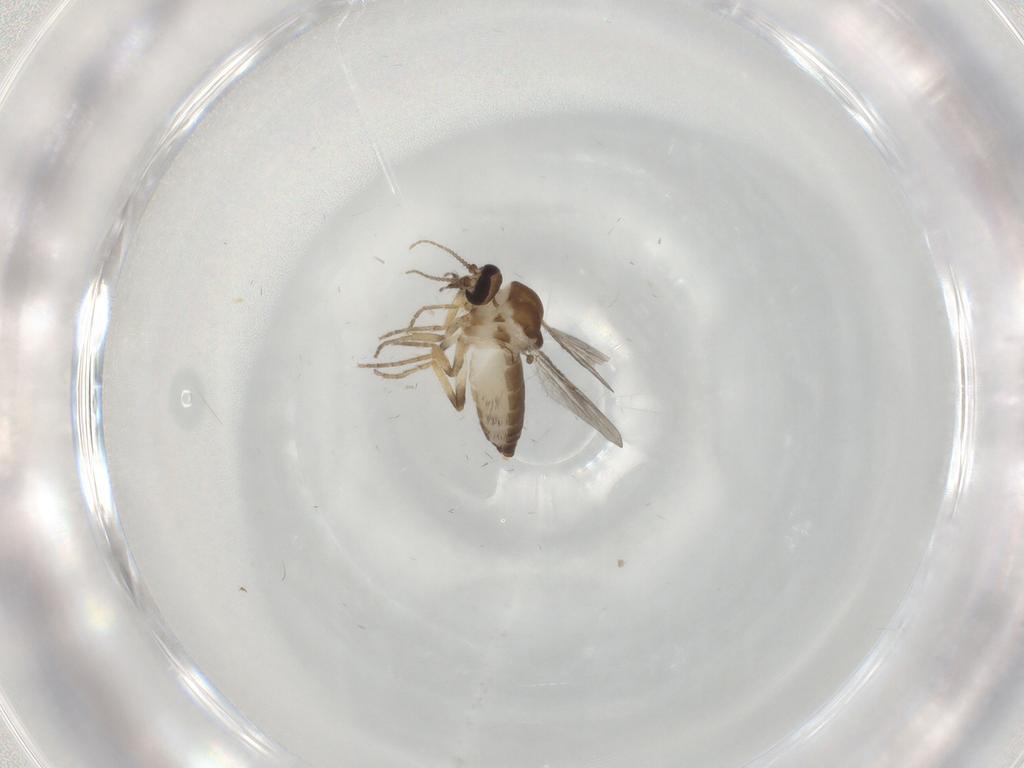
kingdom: Animalia
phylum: Arthropoda
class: Insecta
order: Diptera
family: Ceratopogonidae
